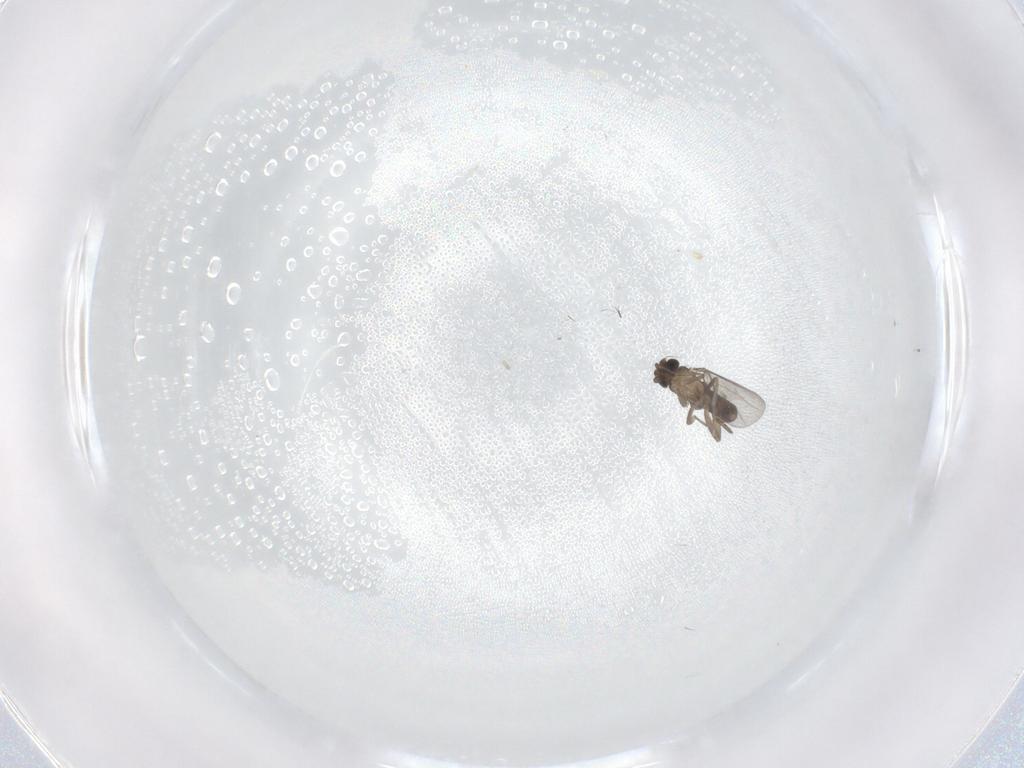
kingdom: Animalia
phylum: Arthropoda
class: Insecta
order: Diptera
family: Phoridae
